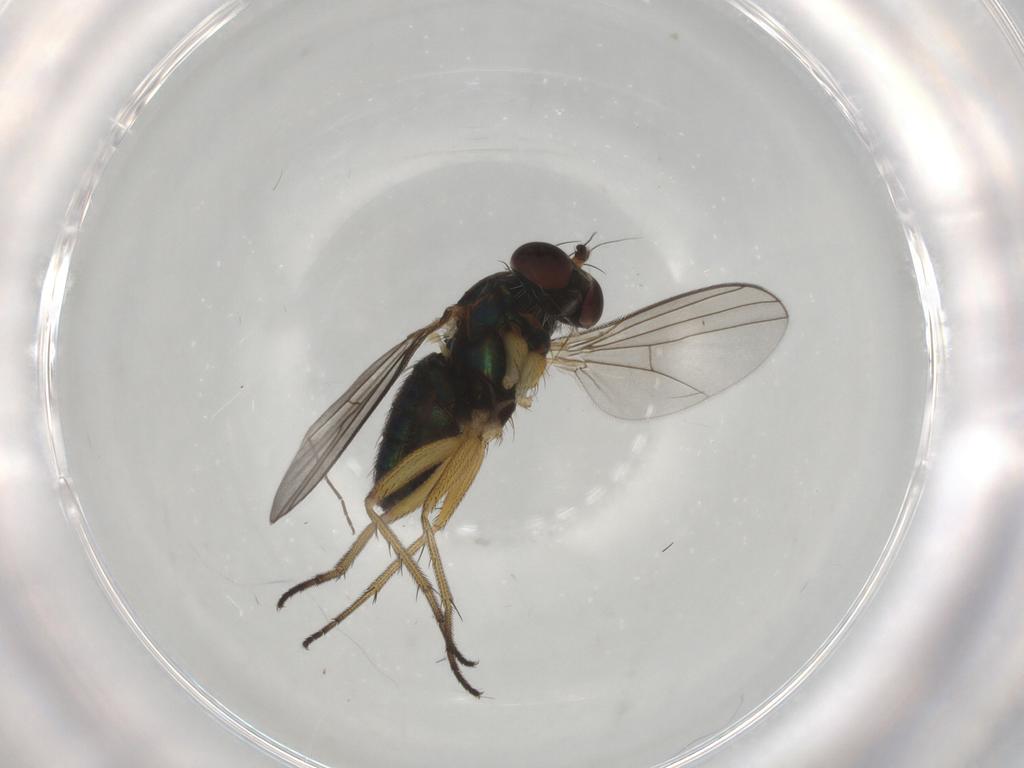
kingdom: Animalia
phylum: Arthropoda
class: Insecta
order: Diptera
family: Dolichopodidae
